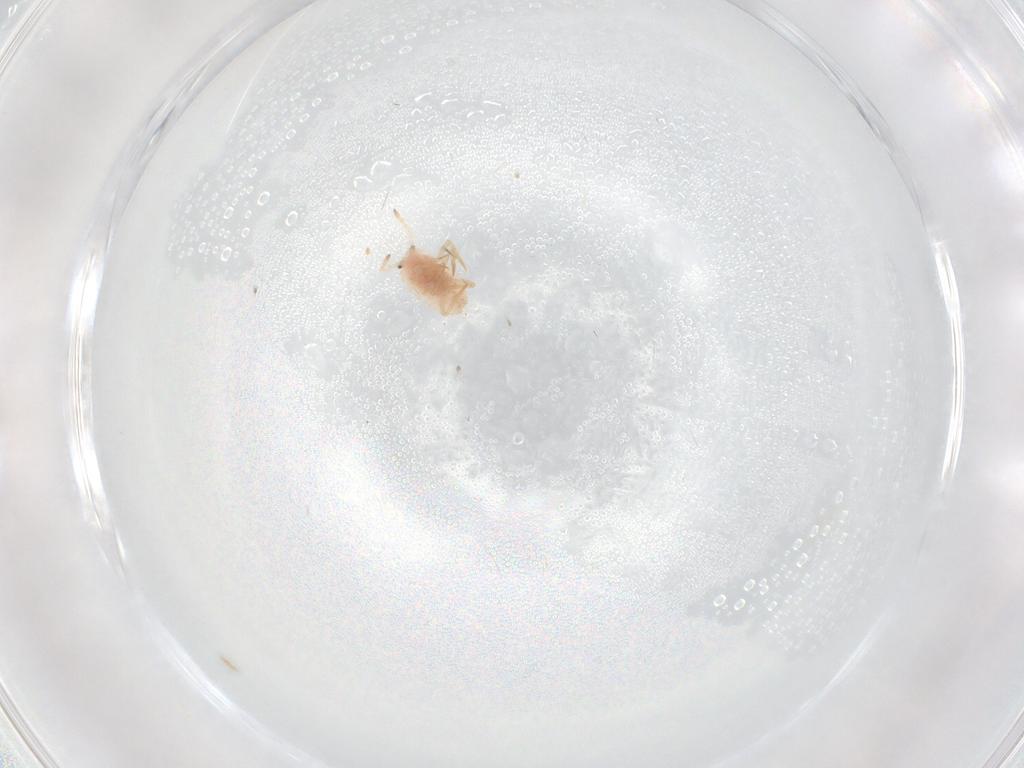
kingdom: Animalia
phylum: Arthropoda
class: Insecta
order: Hemiptera
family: Coccoidea_incertae_sedis
